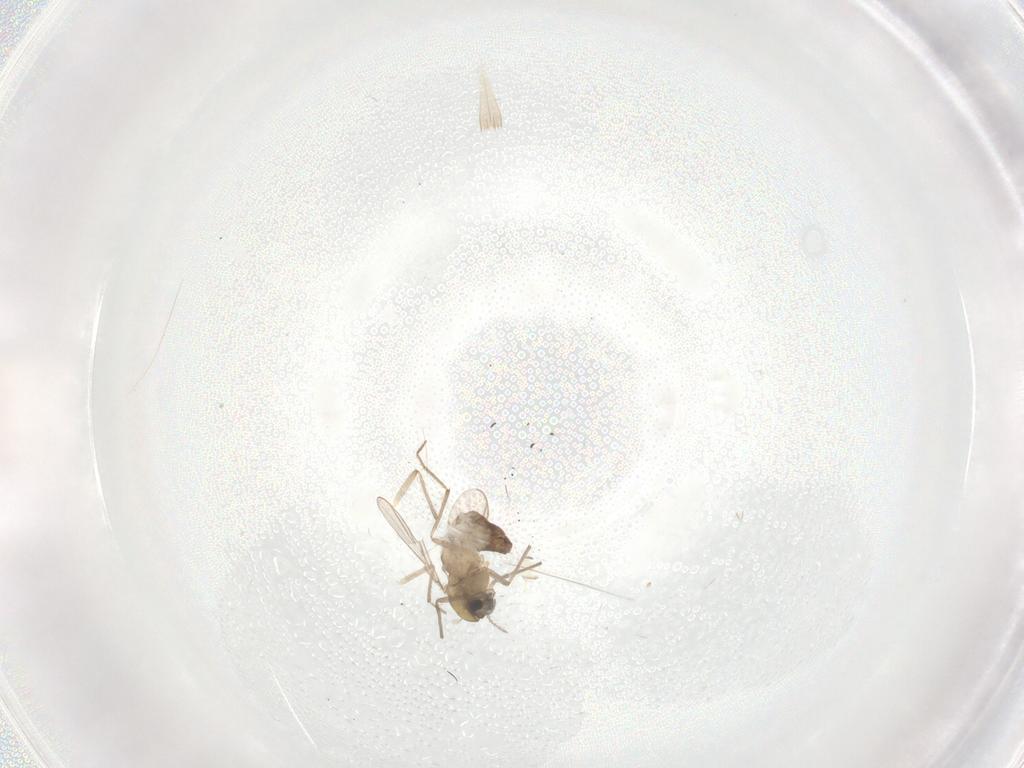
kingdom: Animalia
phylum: Arthropoda
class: Insecta
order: Diptera
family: Chironomidae
